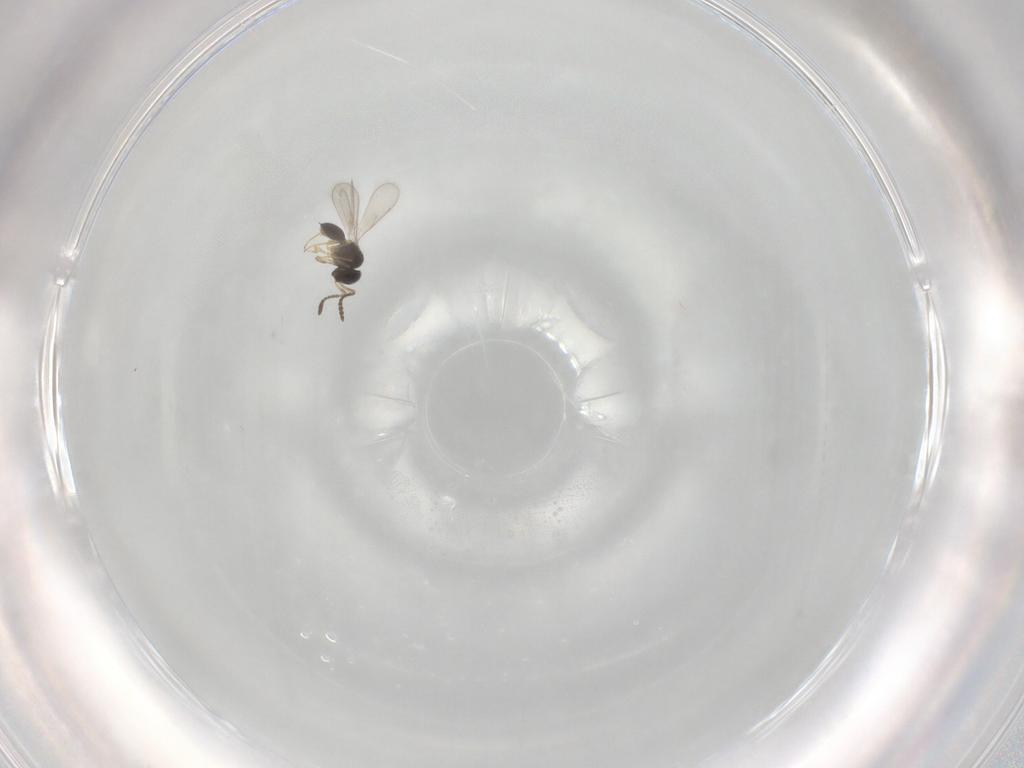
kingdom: Animalia
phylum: Arthropoda
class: Insecta
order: Hymenoptera
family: Scelionidae
